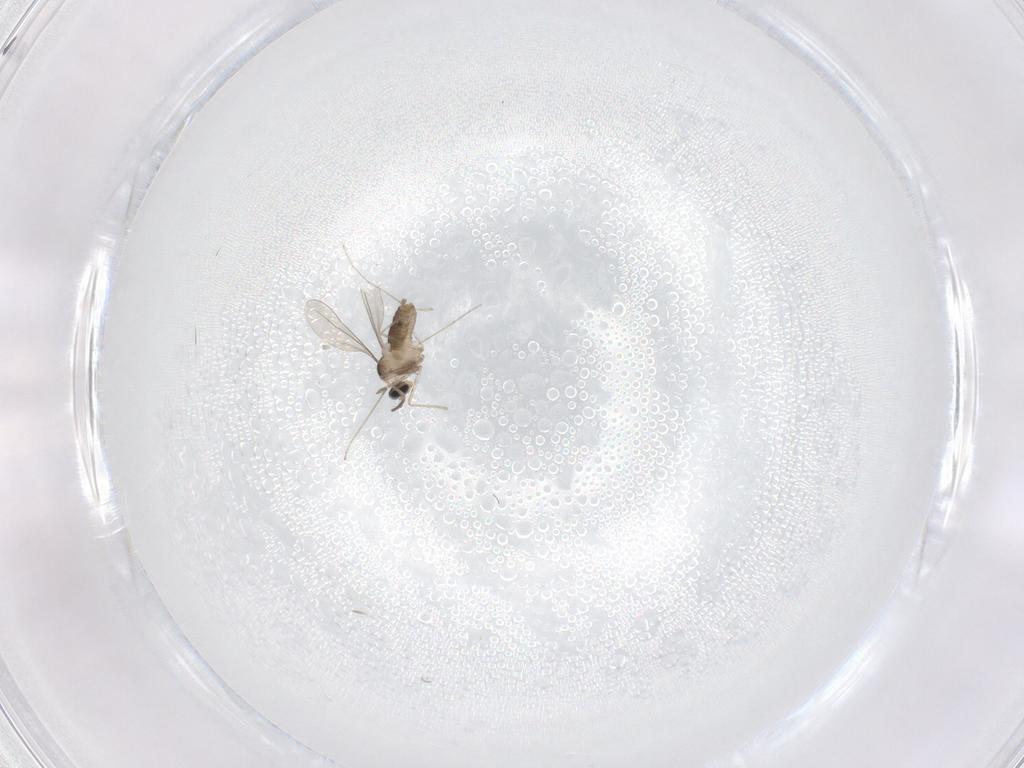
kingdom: Animalia
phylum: Arthropoda
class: Insecta
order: Diptera
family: Cecidomyiidae
